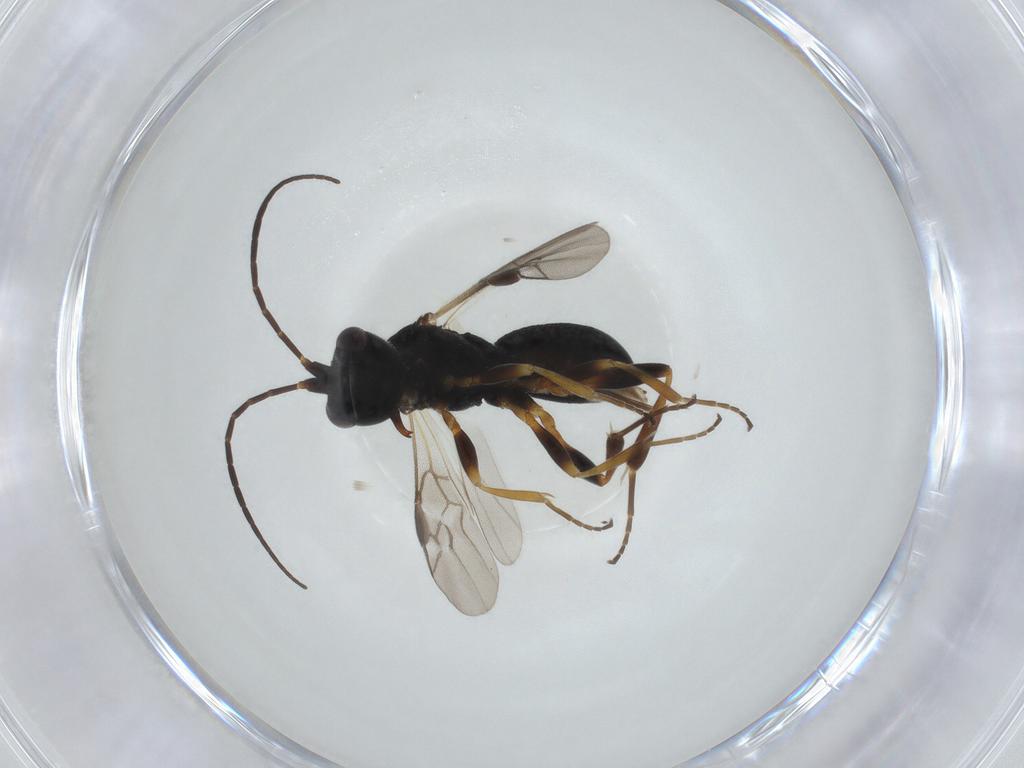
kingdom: Animalia
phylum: Arthropoda
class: Insecta
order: Hymenoptera
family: Braconidae
